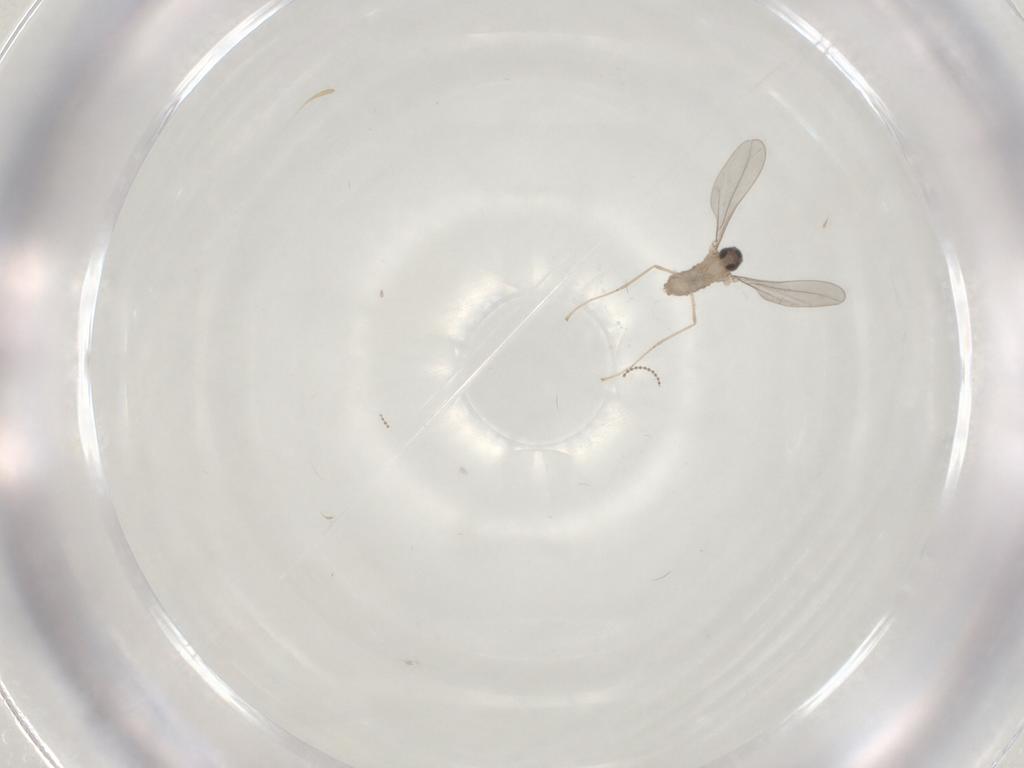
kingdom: Animalia
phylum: Arthropoda
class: Insecta
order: Diptera
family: Cecidomyiidae
